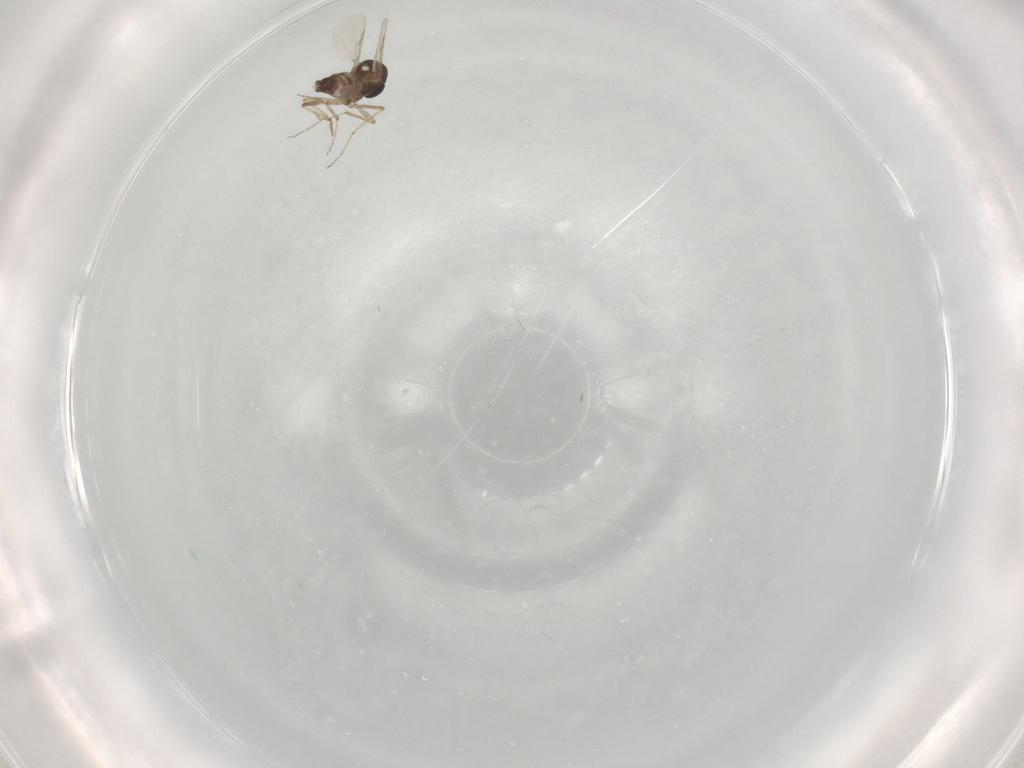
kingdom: Animalia
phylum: Arthropoda
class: Insecta
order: Diptera
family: Ceratopogonidae
